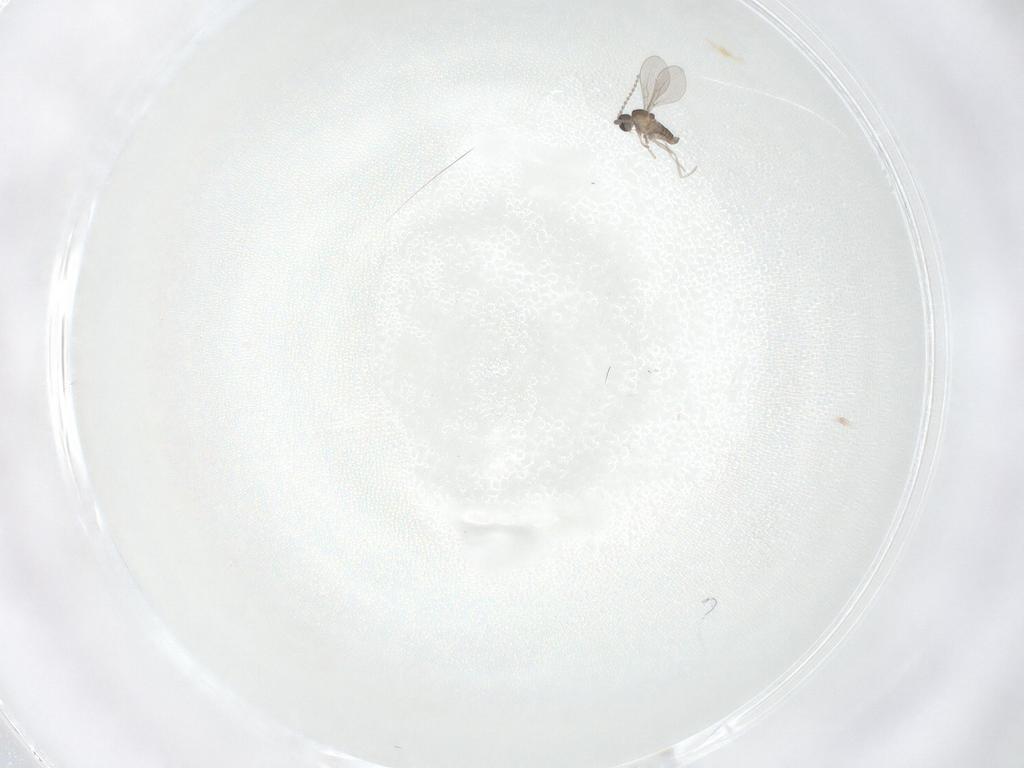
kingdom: Animalia
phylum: Arthropoda
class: Insecta
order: Diptera
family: Cecidomyiidae
